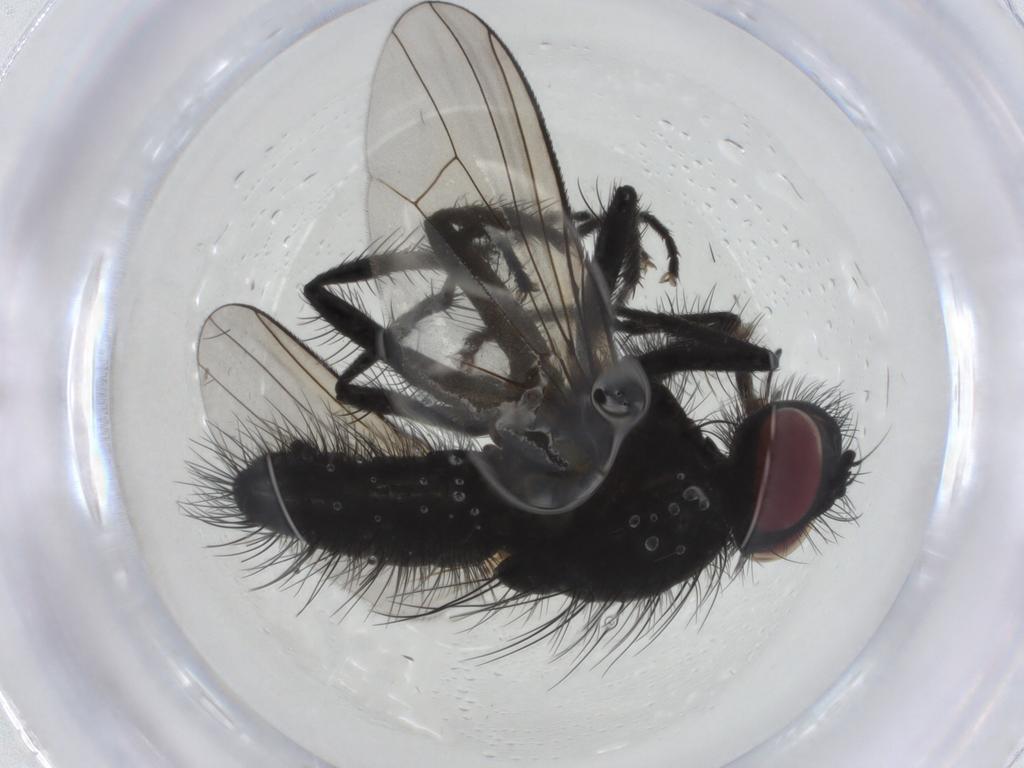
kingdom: Animalia
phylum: Arthropoda
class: Insecta
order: Diptera
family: Muscidae
